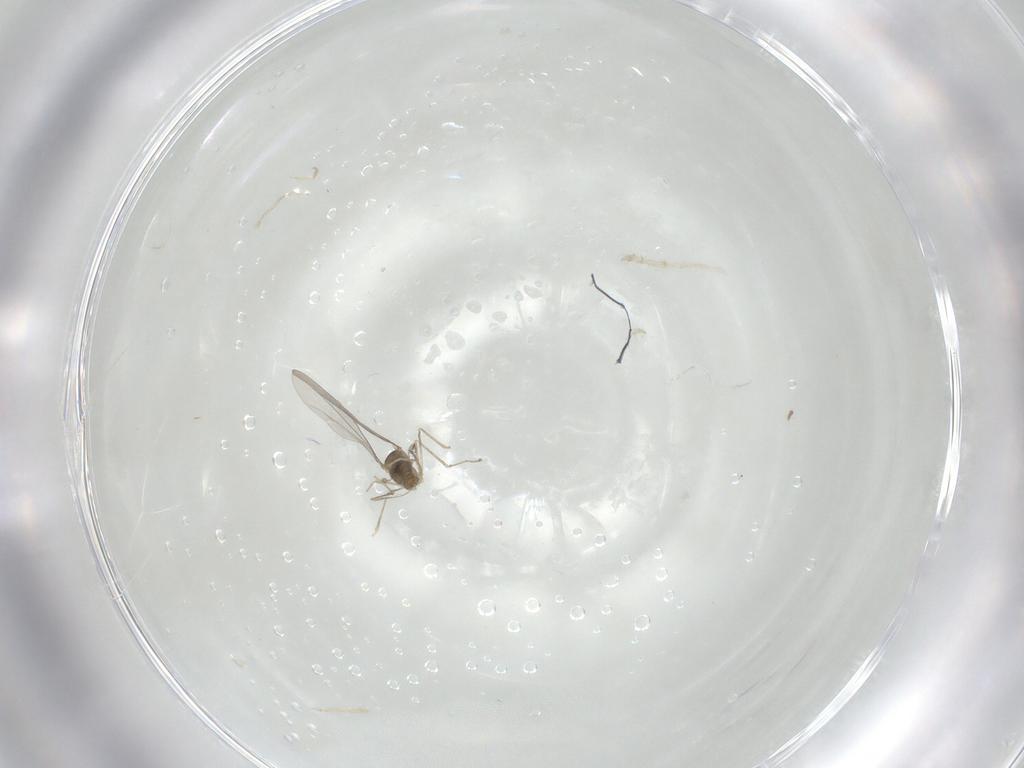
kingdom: Animalia
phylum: Arthropoda
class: Insecta
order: Diptera
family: Cecidomyiidae
